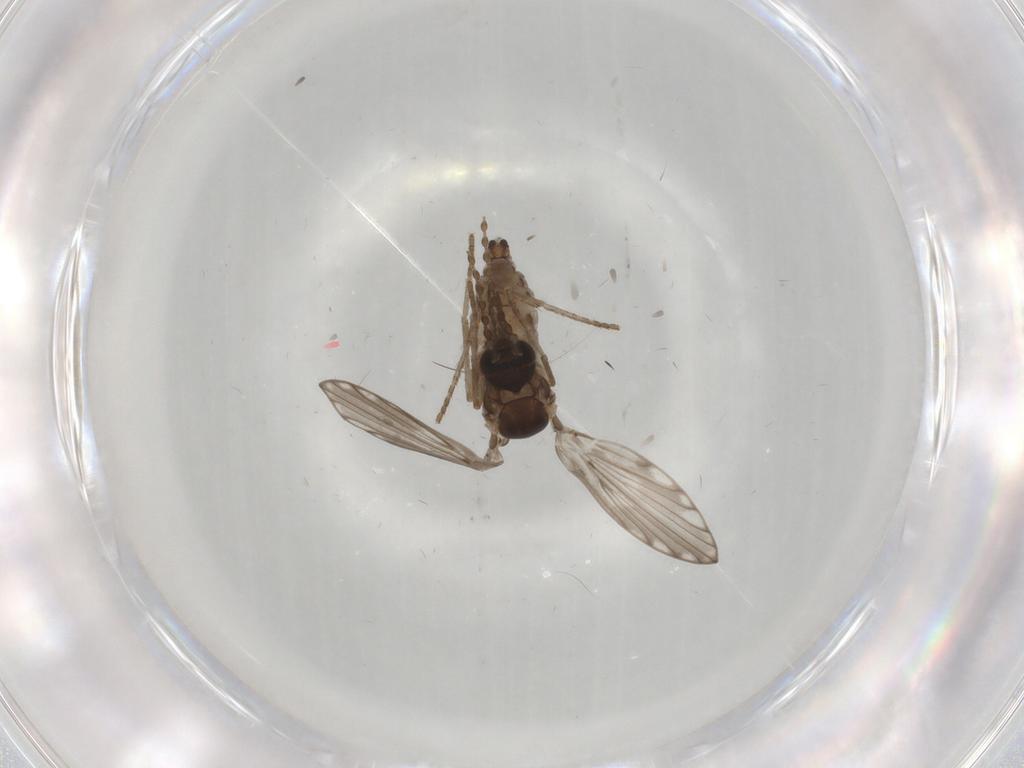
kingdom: Animalia
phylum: Arthropoda
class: Insecta
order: Diptera
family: Psychodidae
